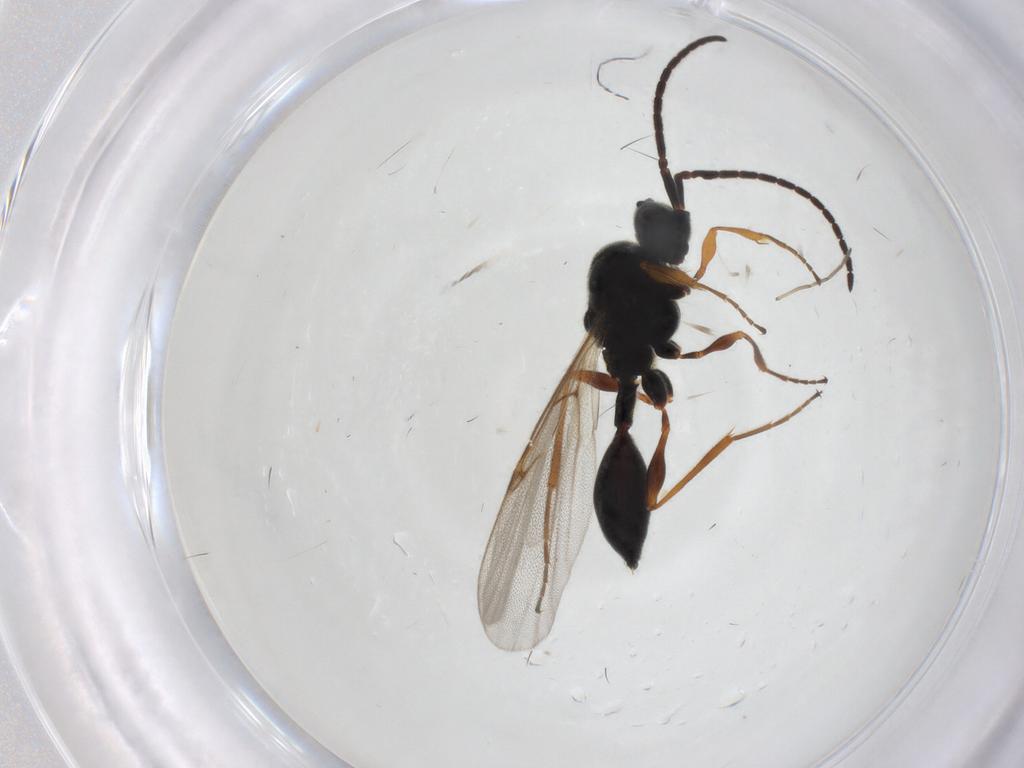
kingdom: Animalia
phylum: Arthropoda
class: Insecta
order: Hymenoptera
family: Diapriidae
